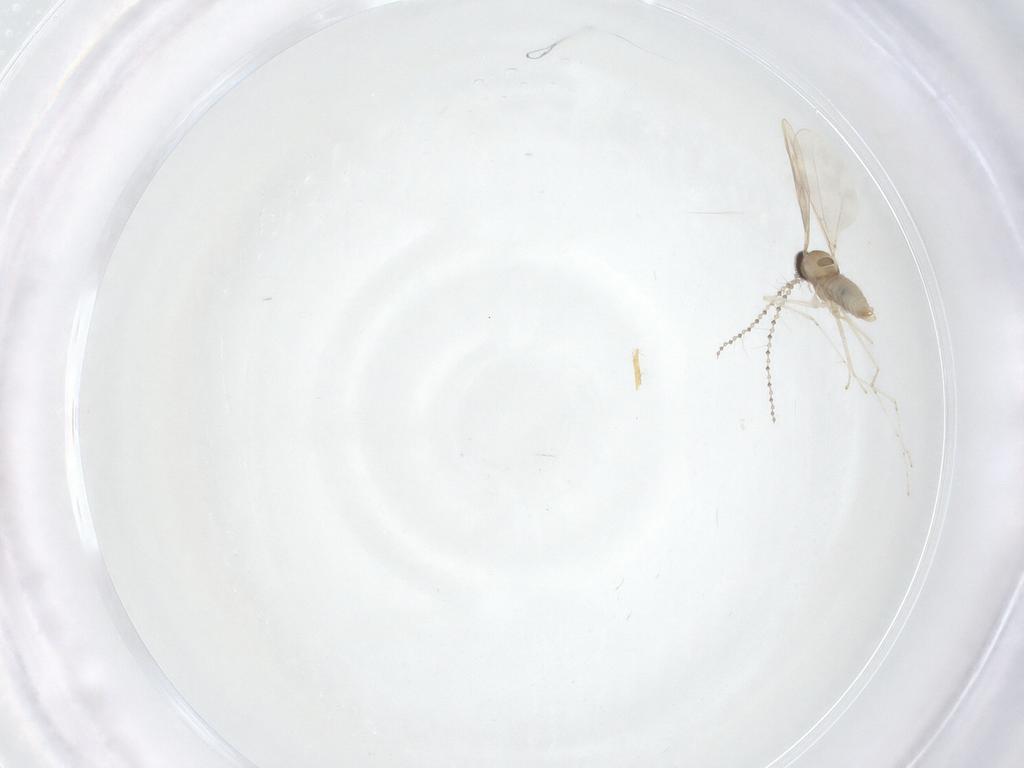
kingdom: Animalia
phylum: Arthropoda
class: Insecta
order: Diptera
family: Cecidomyiidae
